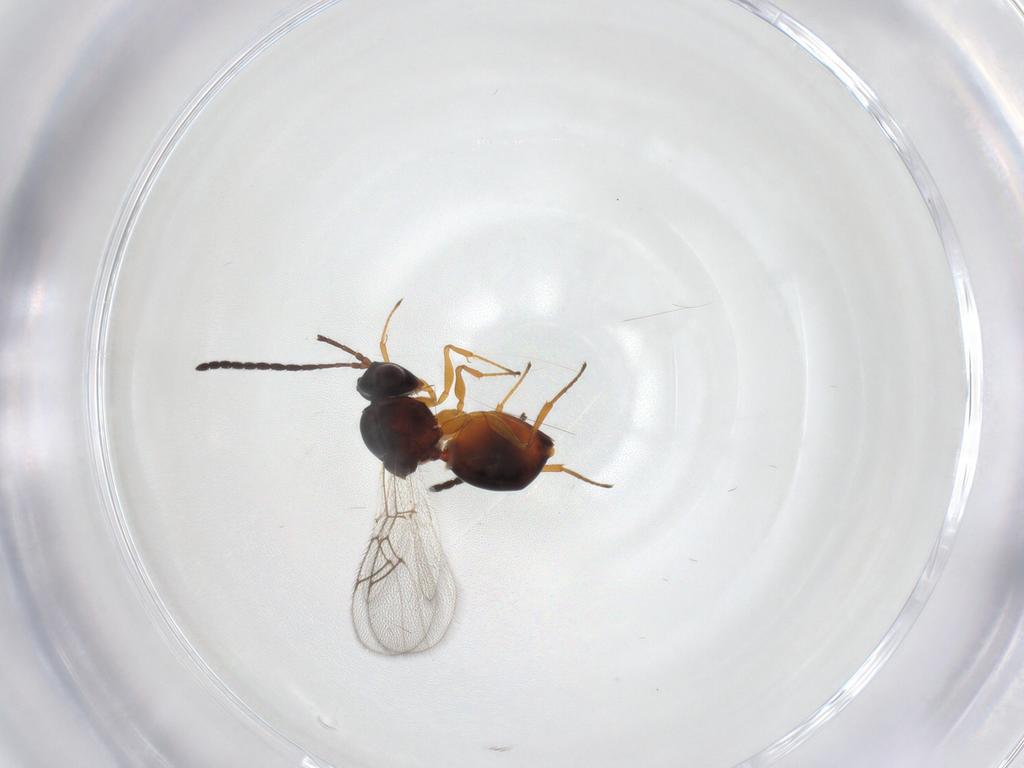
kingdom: Animalia
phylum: Arthropoda
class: Insecta
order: Hymenoptera
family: Figitidae
